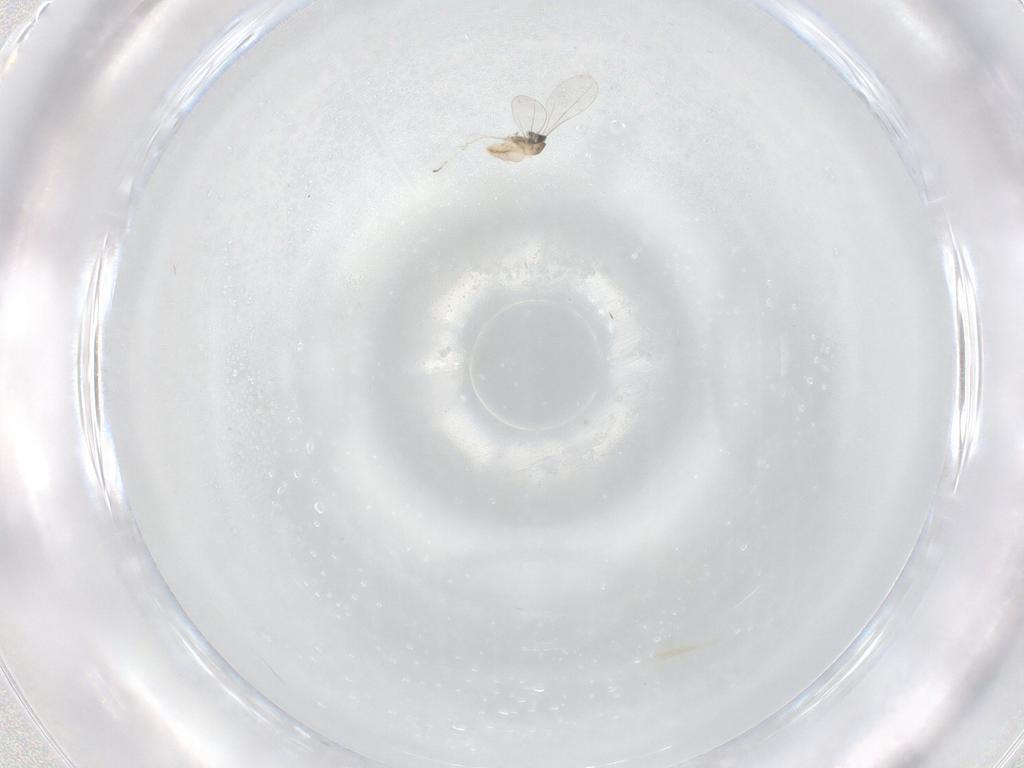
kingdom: Animalia
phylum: Arthropoda
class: Insecta
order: Diptera
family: Cecidomyiidae
